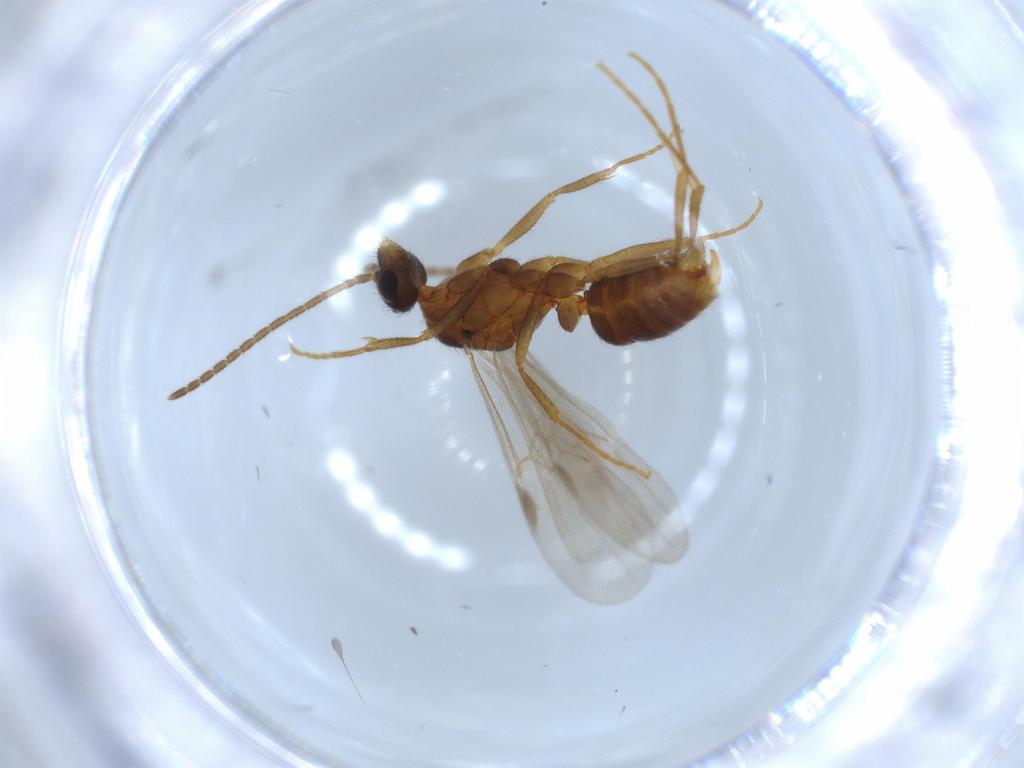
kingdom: Animalia
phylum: Arthropoda
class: Insecta
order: Hymenoptera
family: Formicidae
